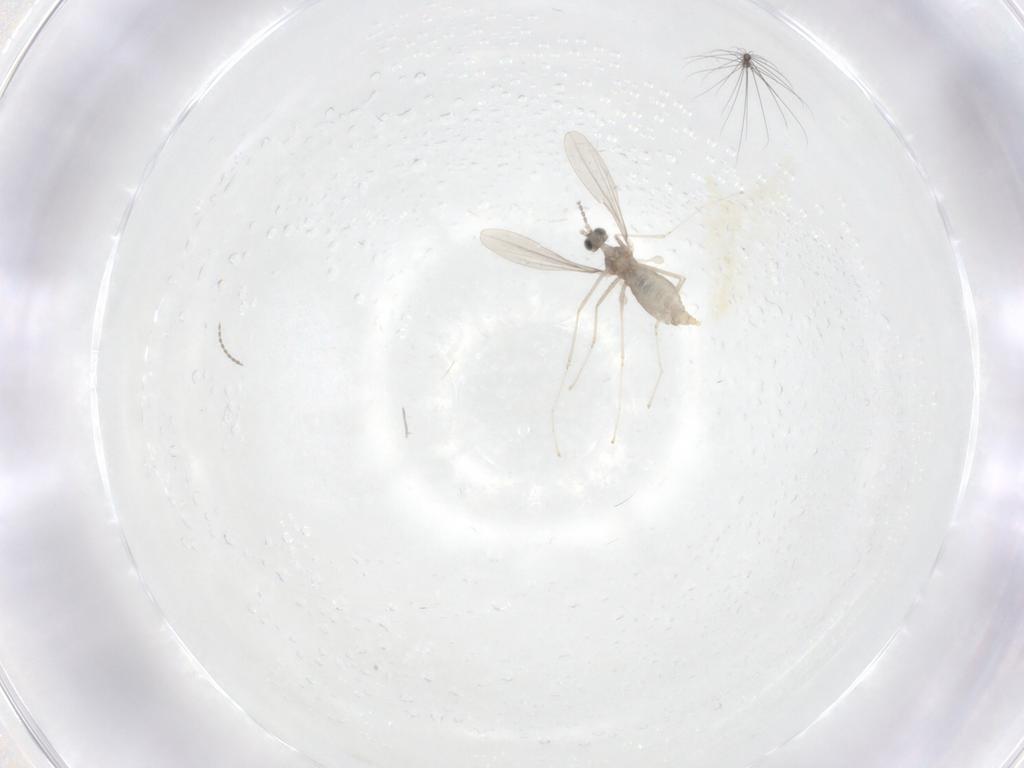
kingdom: Animalia
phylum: Arthropoda
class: Insecta
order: Diptera
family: Cecidomyiidae
